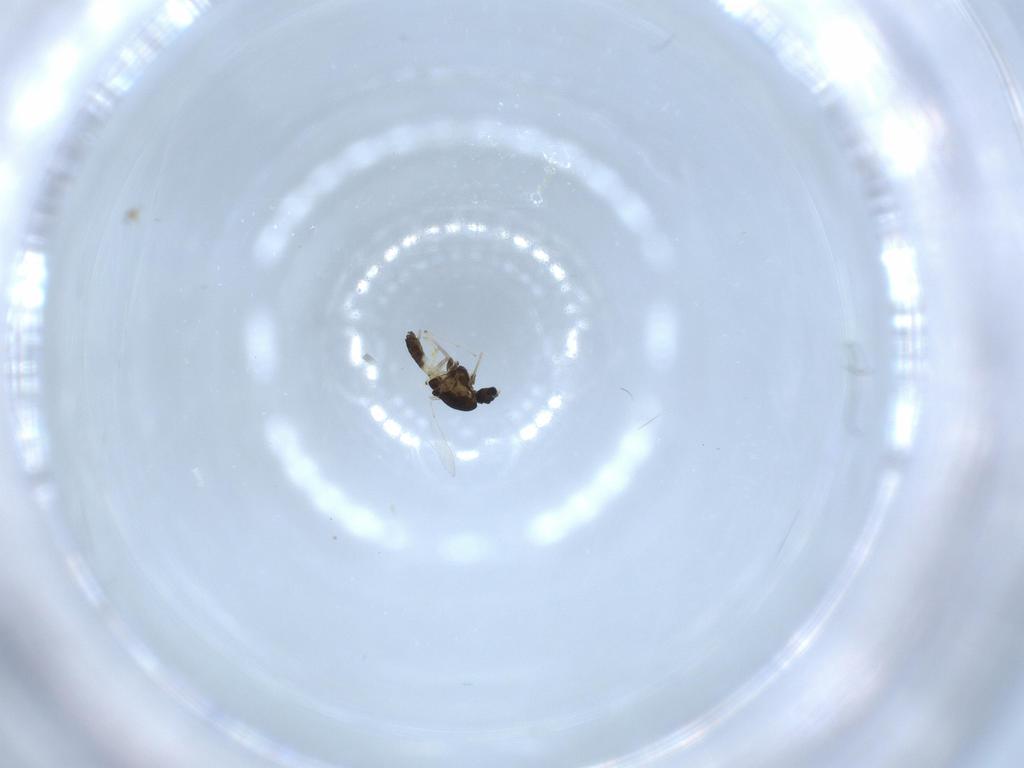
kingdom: Animalia
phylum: Arthropoda
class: Insecta
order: Diptera
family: Chironomidae
